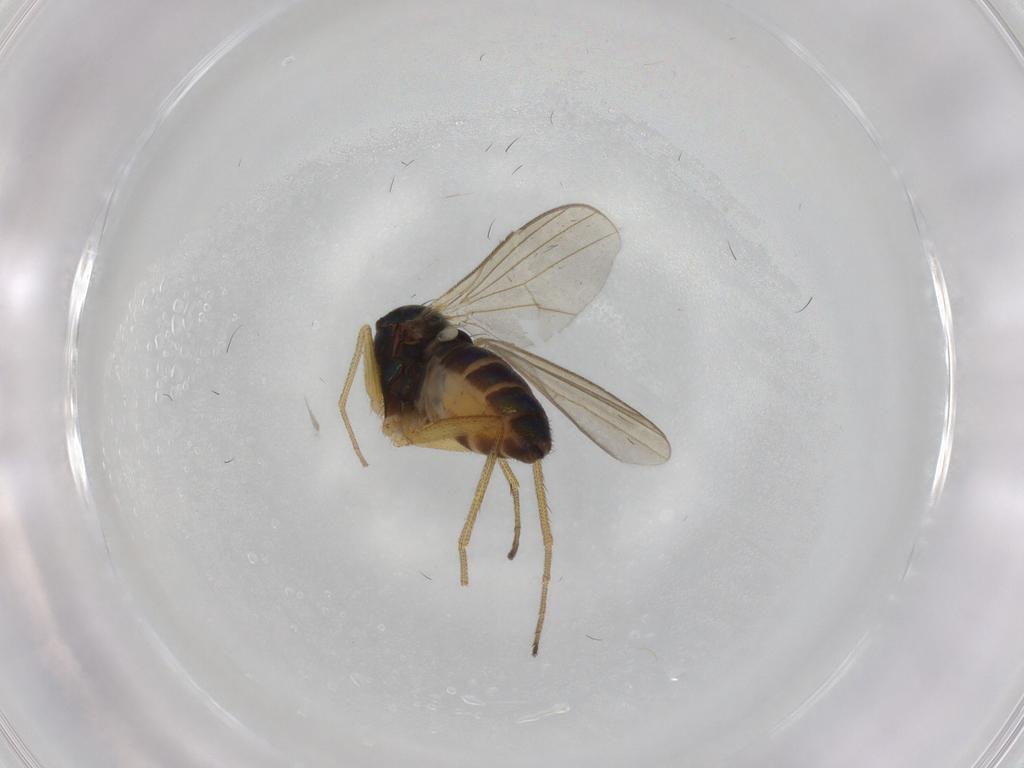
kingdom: Animalia
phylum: Arthropoda
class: Insecta
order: Diptera
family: Dolichopodidae
